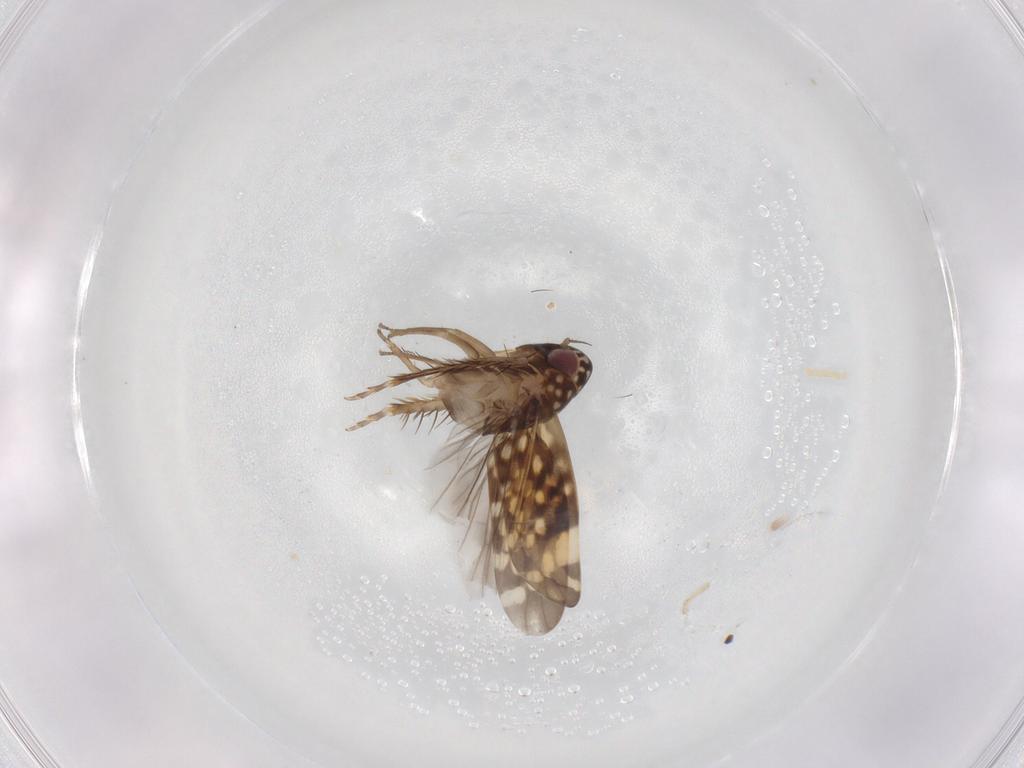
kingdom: Animalia
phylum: Arthropoda
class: Insecta
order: Hemiptera
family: Cicadellidae
